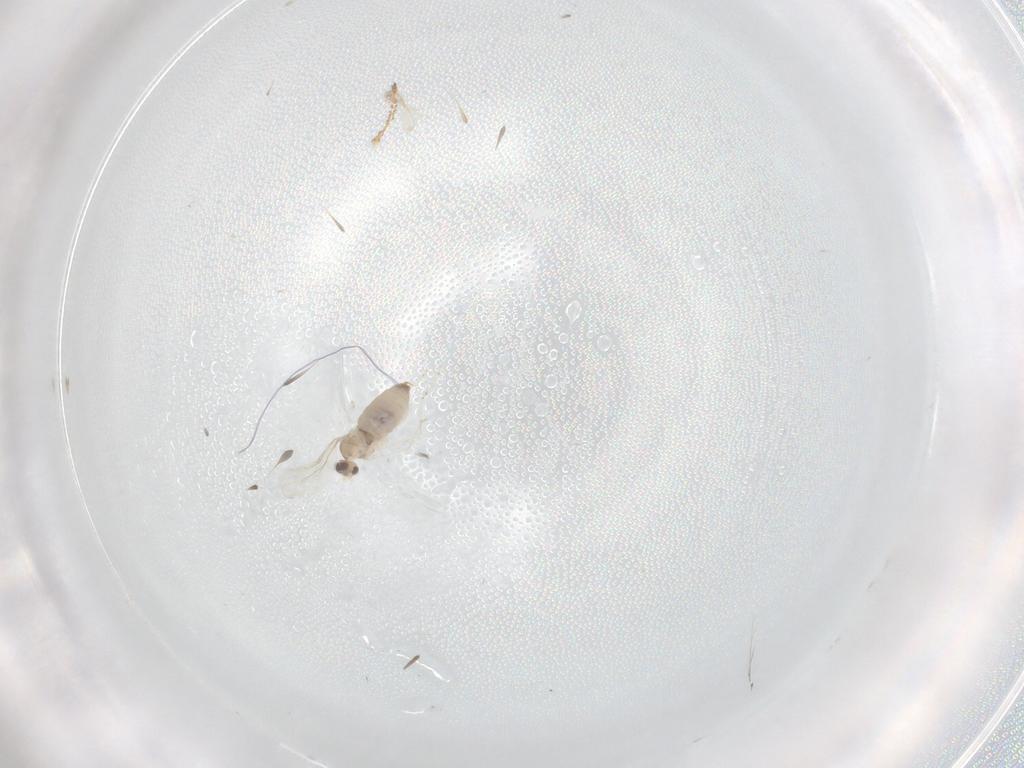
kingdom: Animalia
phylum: Arthropoda
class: Insecta
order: Diptera
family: Cecidomyiidae
